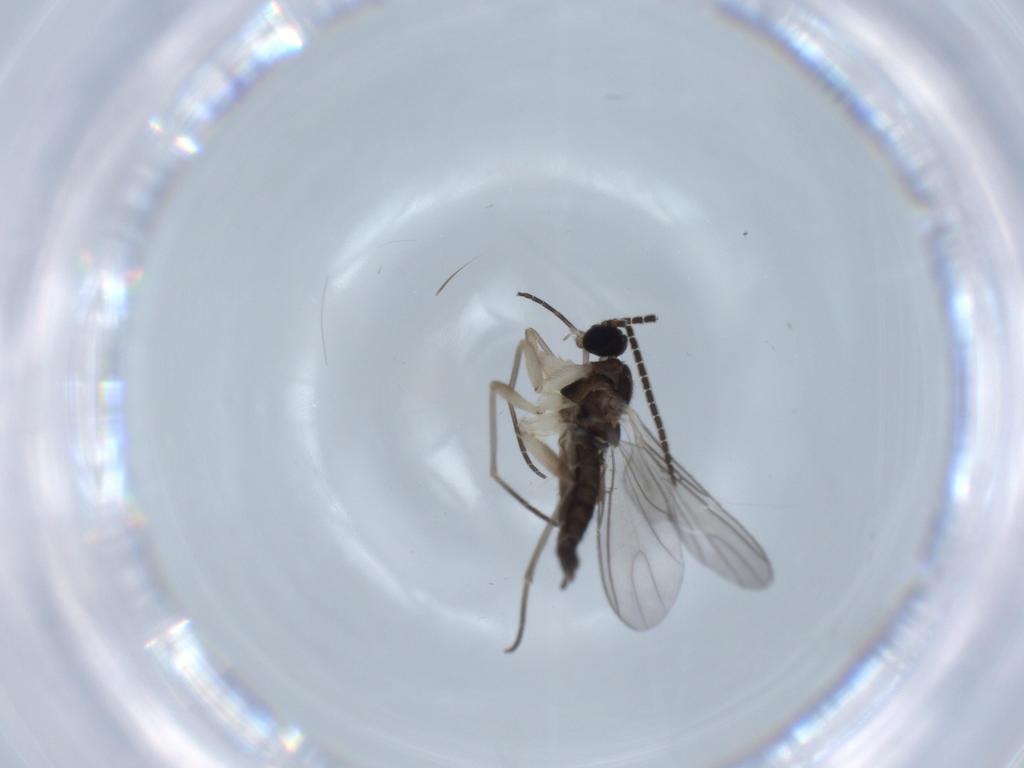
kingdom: Animalia
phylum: Arthropoda
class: Insecta
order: Diptera
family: Sciaridae
